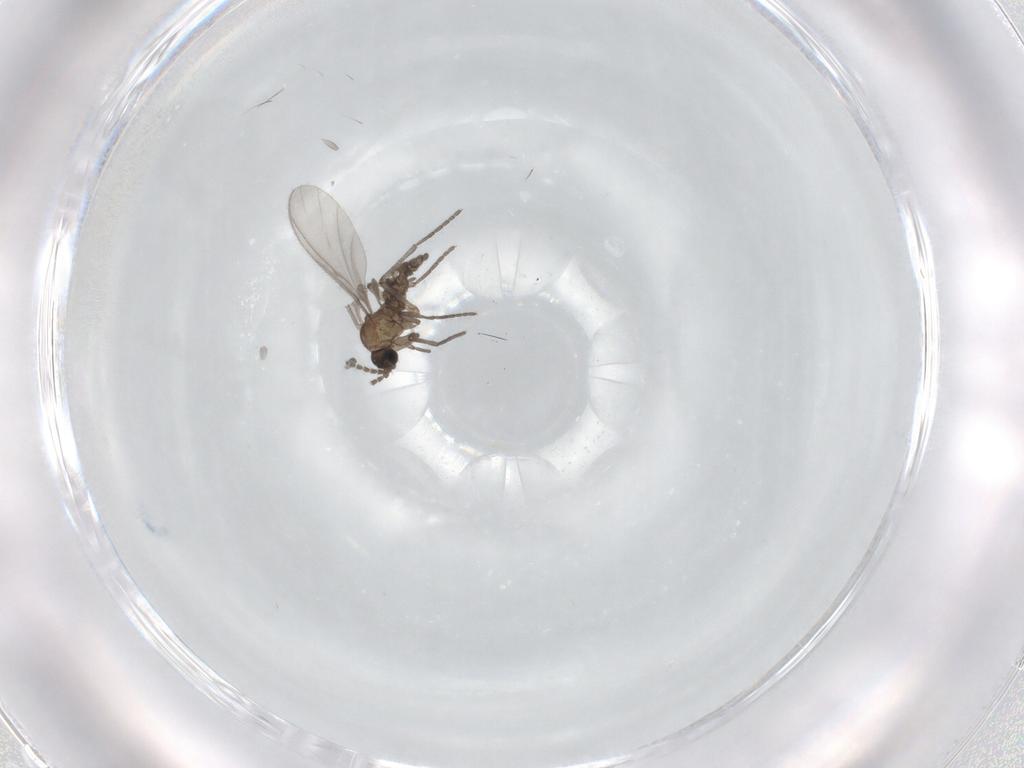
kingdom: Animalia
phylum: Arthropoda
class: Insecta
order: Diptera
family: Sciaridae
